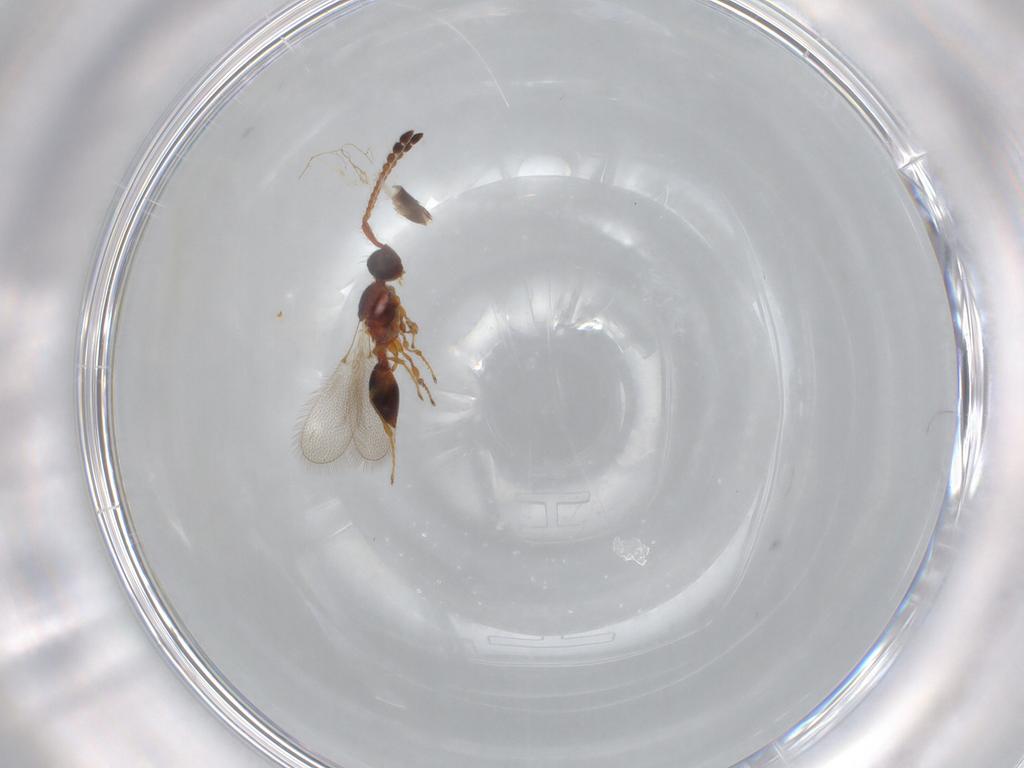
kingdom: Animalia
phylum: Arthropoda
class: Insecta
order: Hymenoptera
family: Diapriidae
